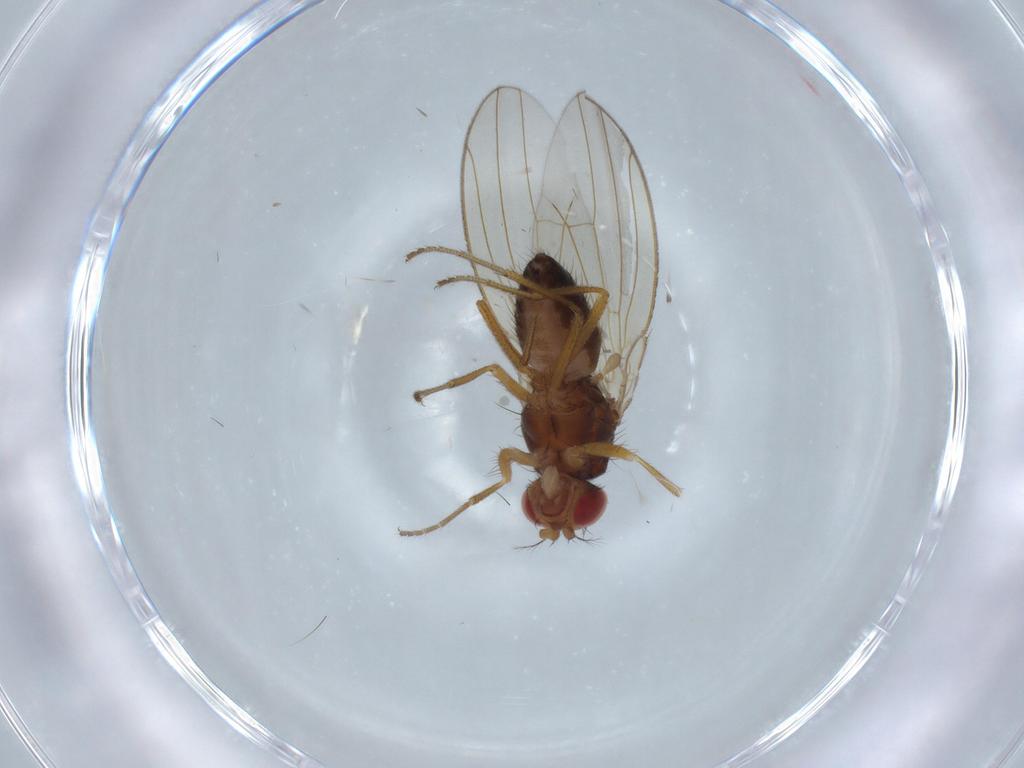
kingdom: Animalia
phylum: Arthropoda
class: Insecta
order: Diptera
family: Drosophilidae
